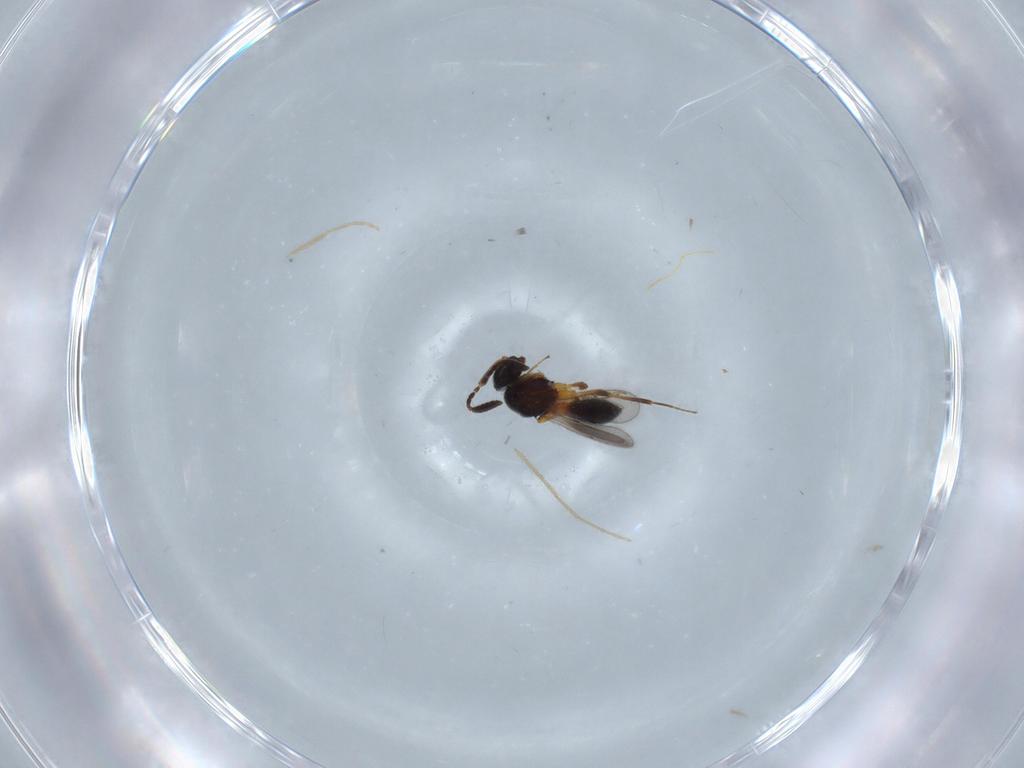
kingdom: Animalia
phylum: Arthropoda
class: Insecta
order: Hymenoptera
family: Scelionidae
